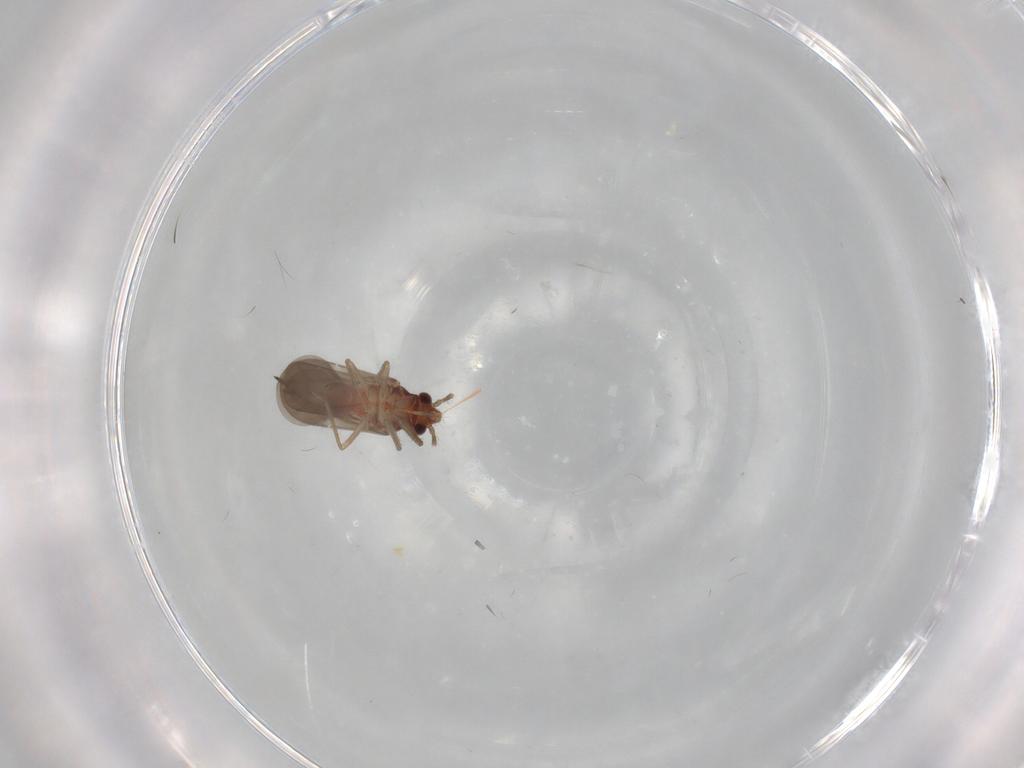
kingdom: Animalia
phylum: Arthropoda
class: Insecta
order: Hemiptera
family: Ceratocombidae
